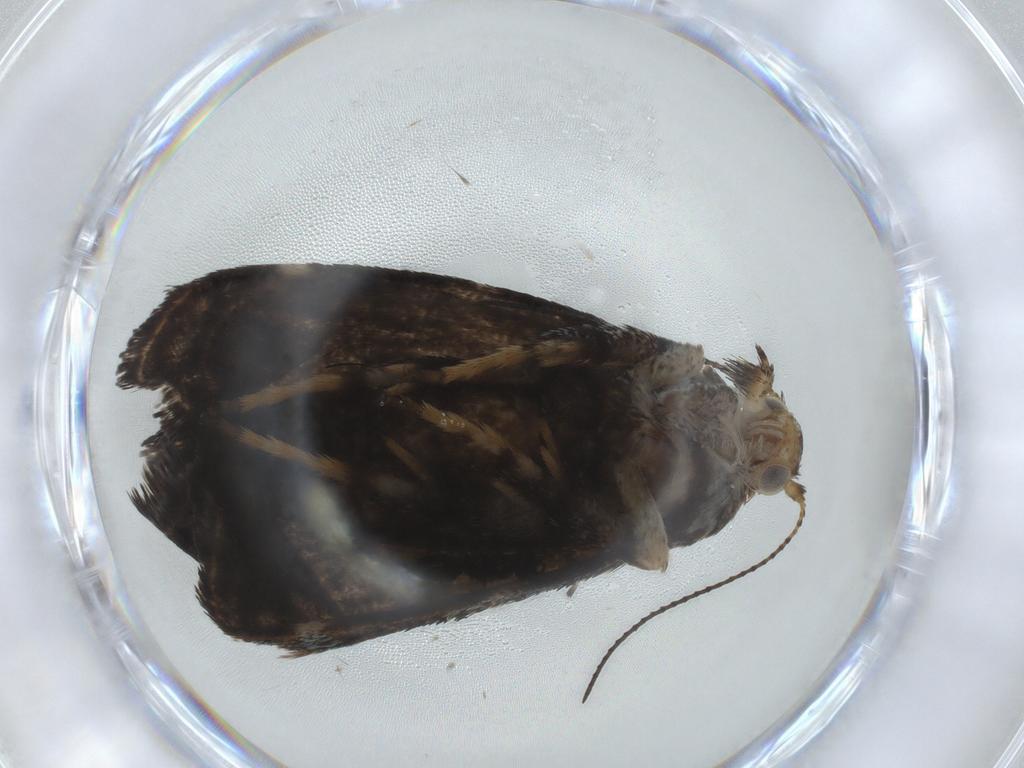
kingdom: Animalia
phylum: Arthropoda
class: Insecta
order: Lepidoptera
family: Choreutidae
